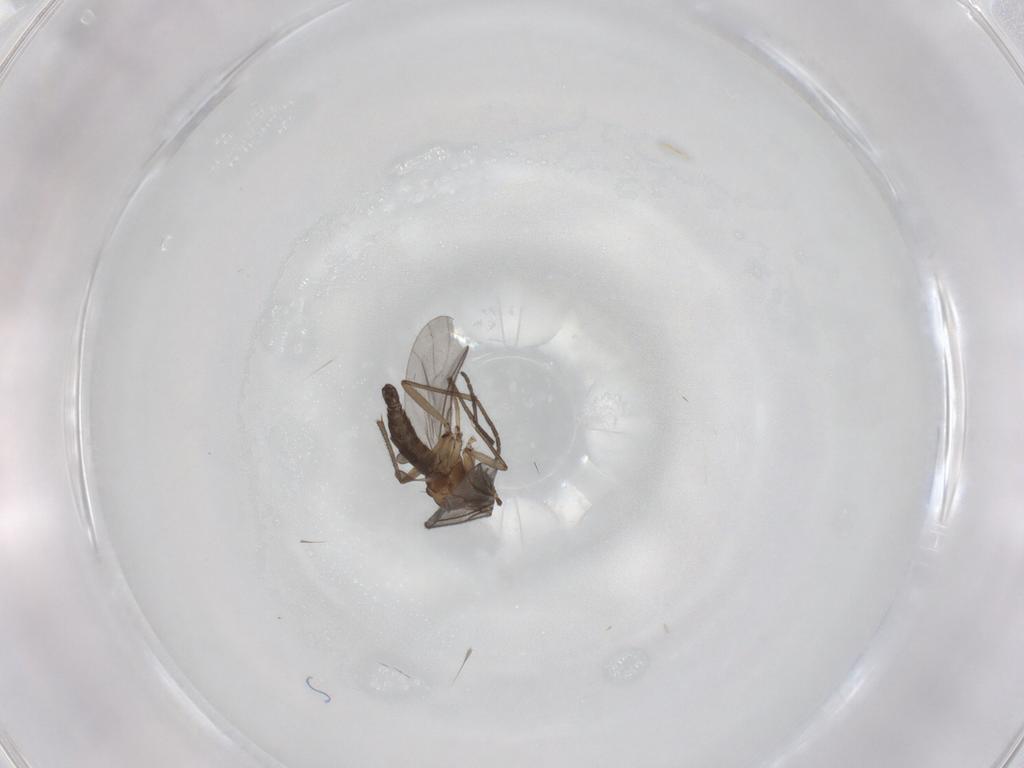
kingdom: Animalia
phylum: Arthropoda
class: Insecta
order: Diptera
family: Sciaridae
